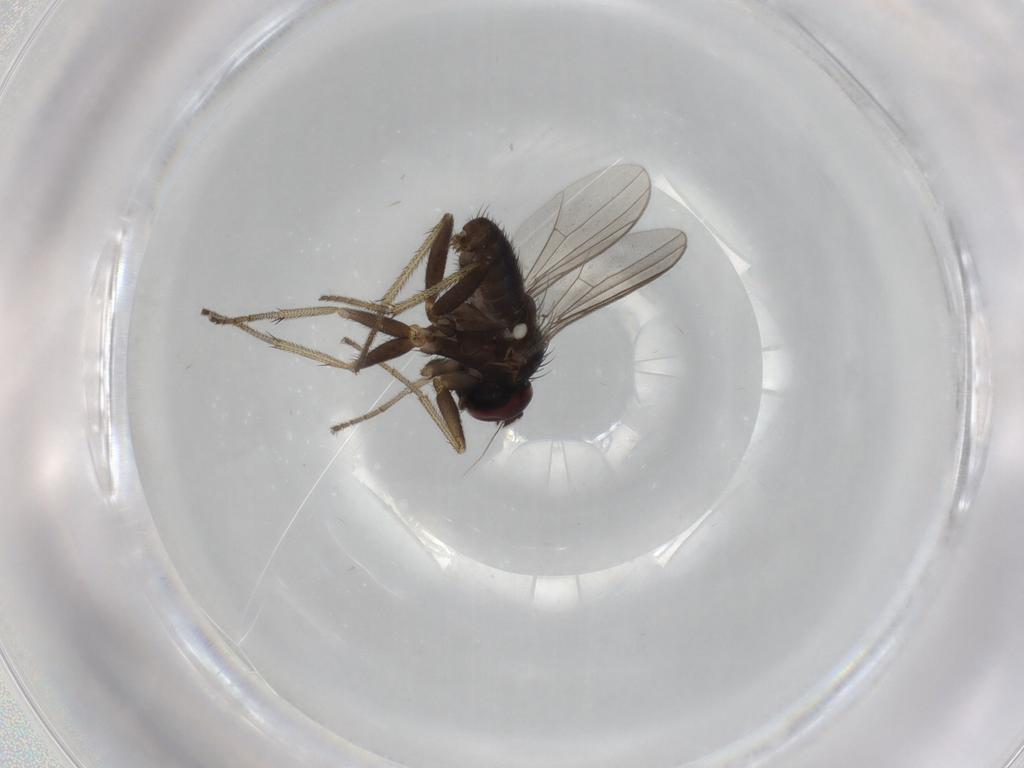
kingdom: Animalia
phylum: Arthropoda
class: Insecta
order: Diptera
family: Dolichopodidae
